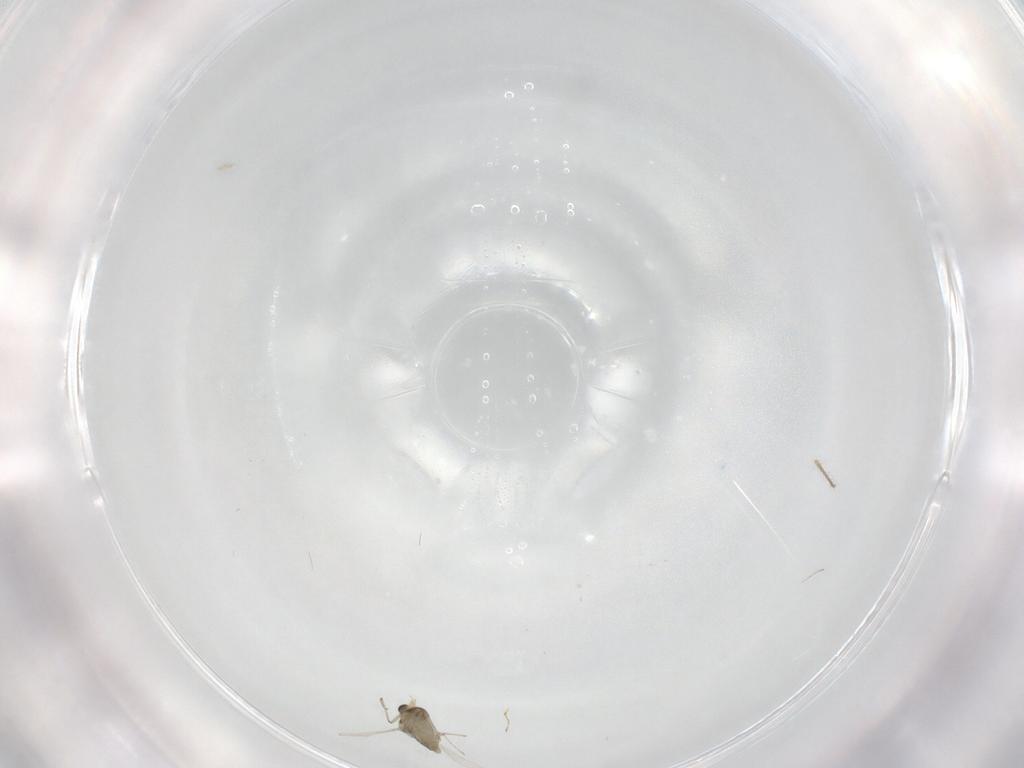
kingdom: Animalia
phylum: Arthropoda
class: Insecta
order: Diptera
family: Chironomidae
